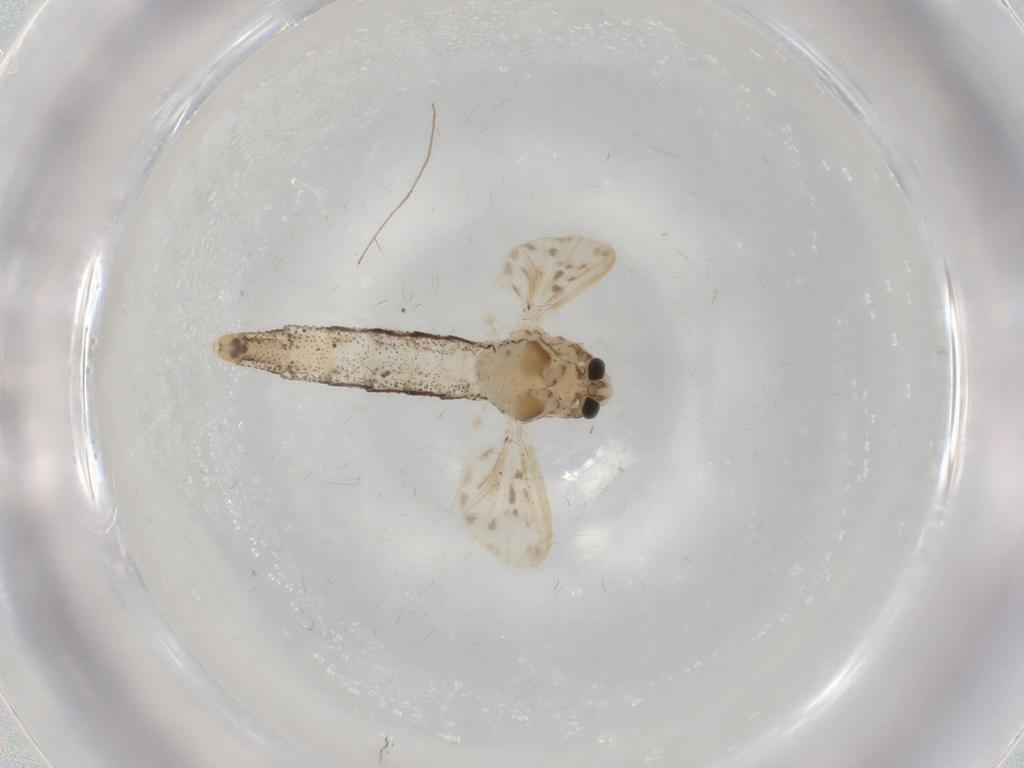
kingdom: Animalia
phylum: Arthropoda
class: Insecta
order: Diptera
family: Chaoboridae
